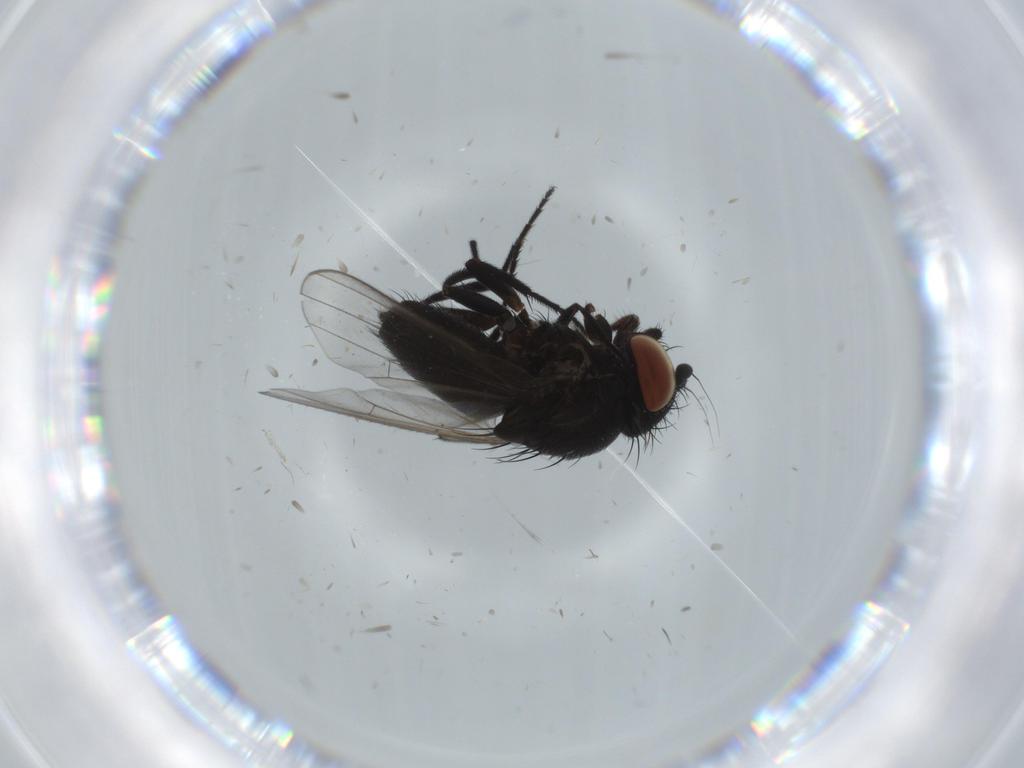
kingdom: Animalia
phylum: Arthropoda
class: Insecta
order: Diptera
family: Milichiidae
